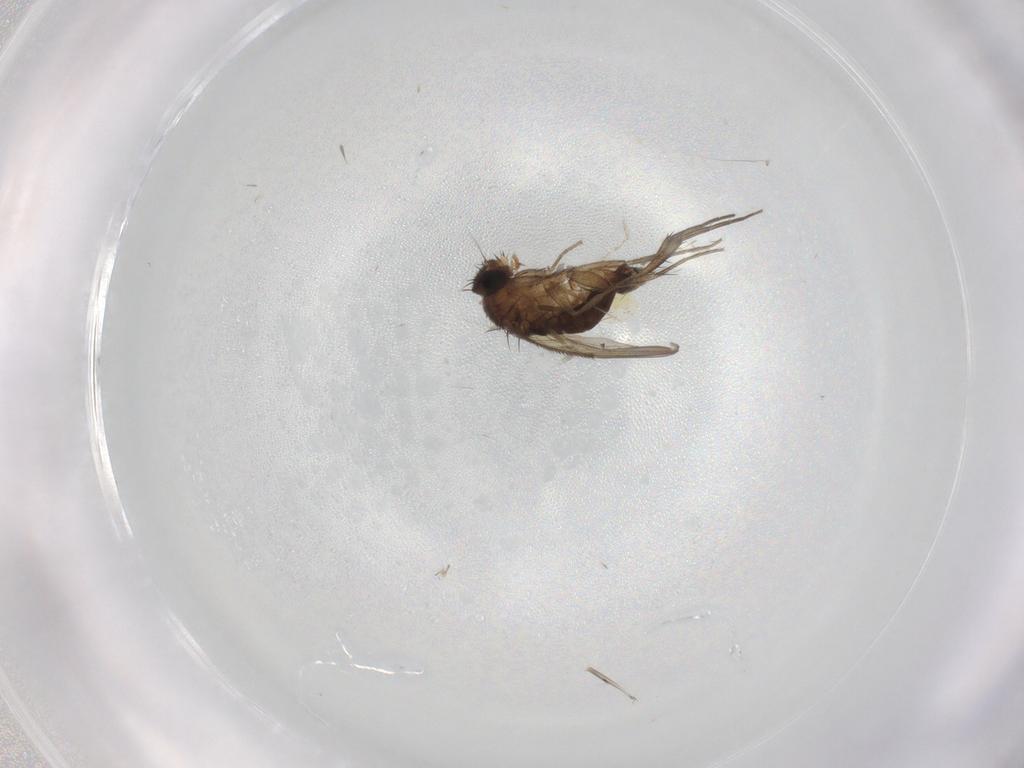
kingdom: Animalia
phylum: Arthropoda
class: Insecta
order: Diptera
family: Phoridae
